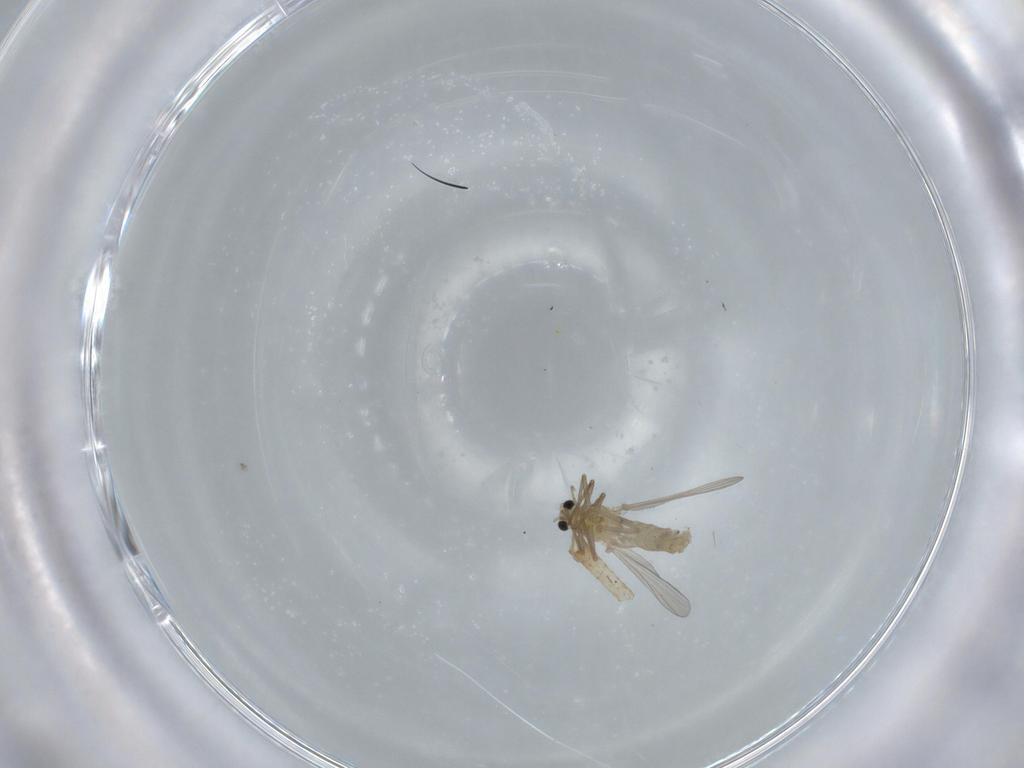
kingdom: Animalia
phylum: Arthropoda
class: Insecta
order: Diptera
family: Chironomidae
